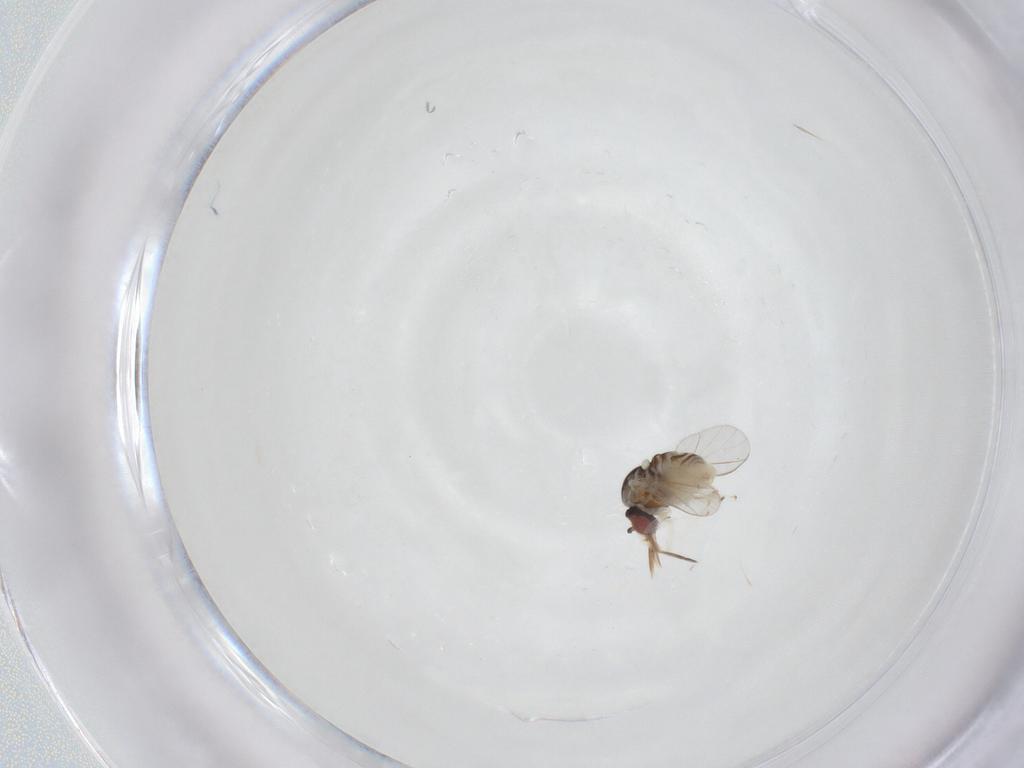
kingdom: Animalia
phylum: Arthropoda
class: Insecta
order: Diptera
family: Bombyliidae
